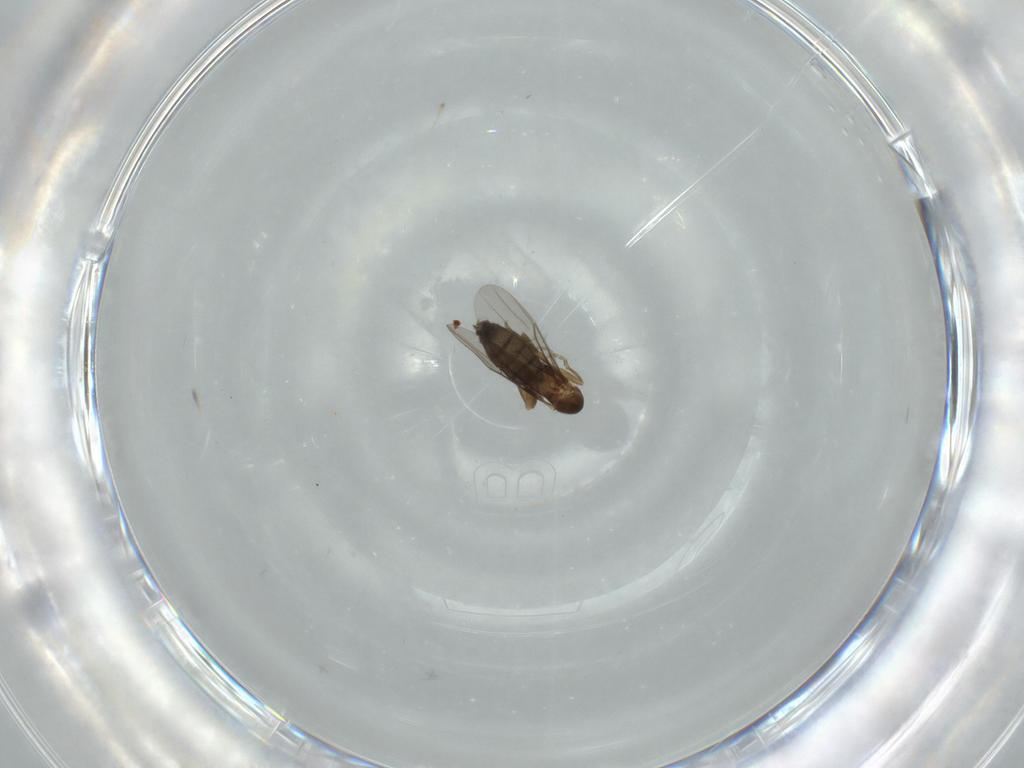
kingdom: Animalia
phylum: Arthropoda
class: Insecta
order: Diptera
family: Phoridae
